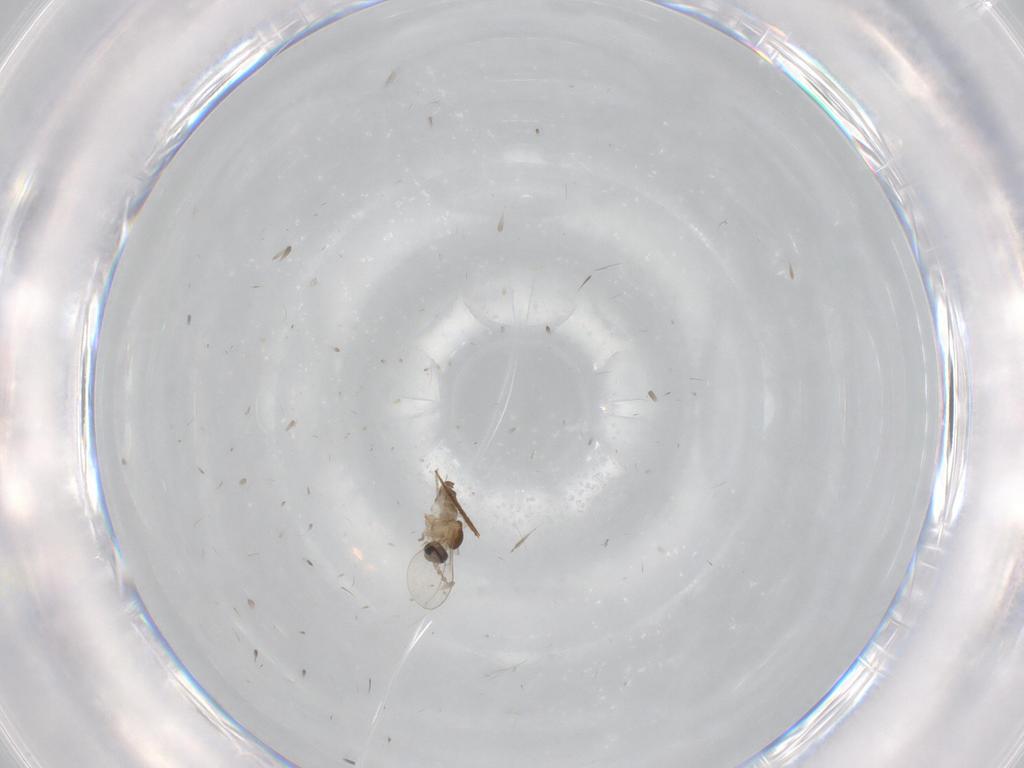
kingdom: Animalia
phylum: Arthropoda
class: Insecta
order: Diptera
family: Cecidomyiidae
